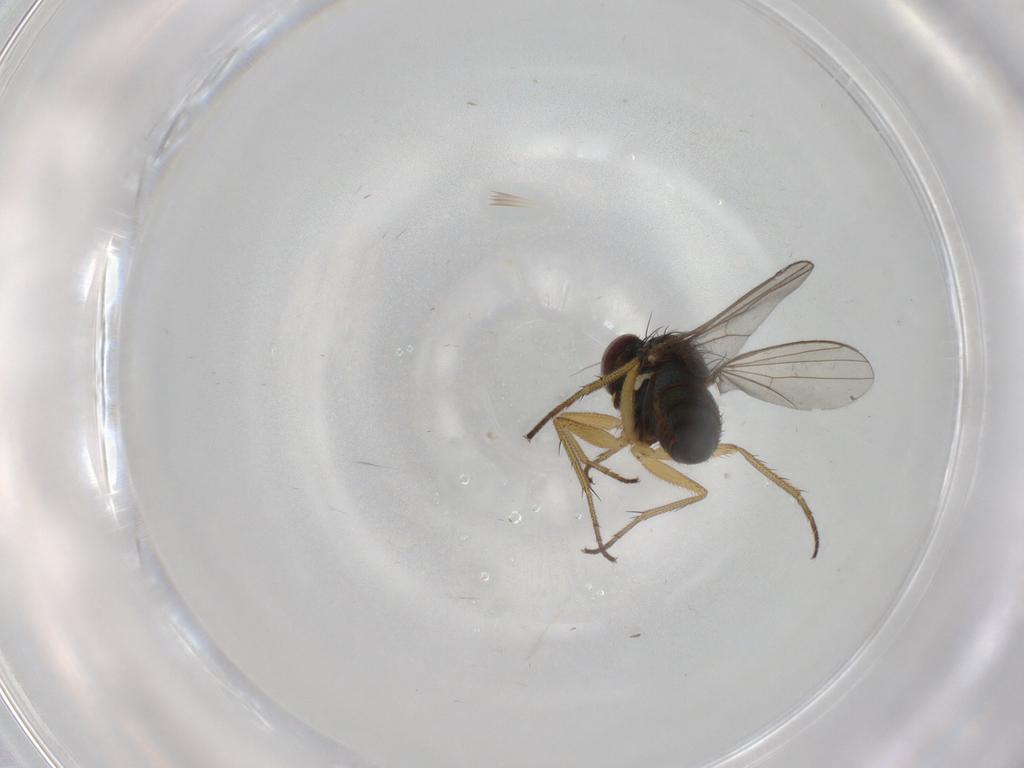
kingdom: Animalia
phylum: Arthropoda
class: Insecta
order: Diptera
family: Dolichopodidae
